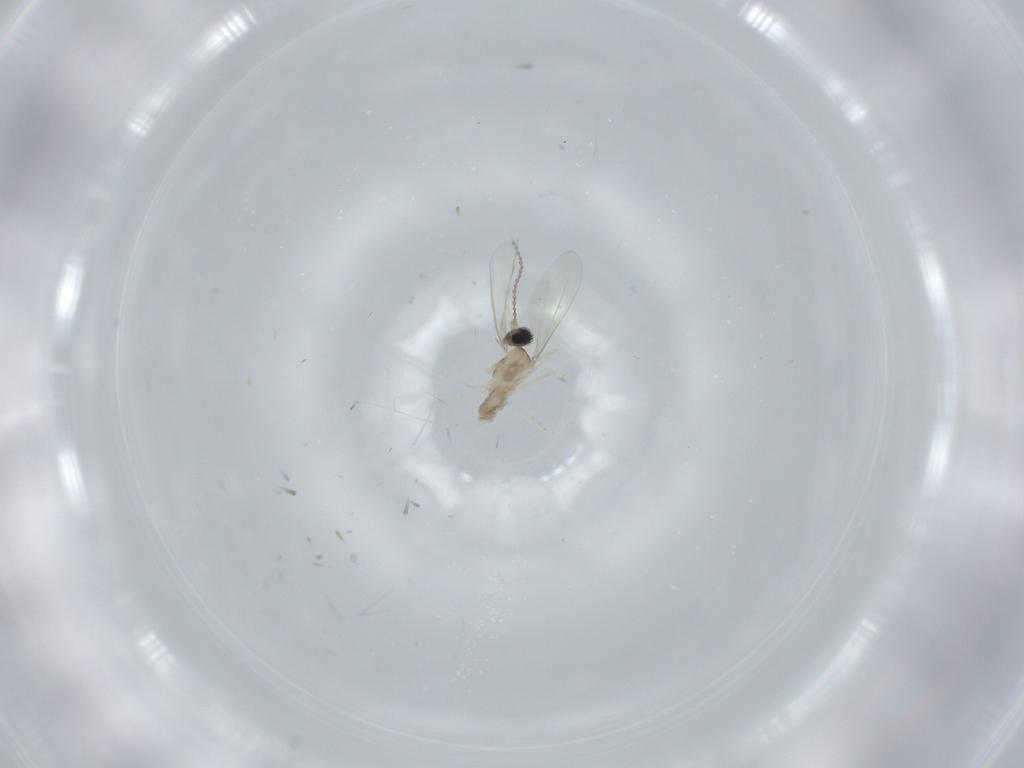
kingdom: Animalia
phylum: Arthropoda
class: Insecta
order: Diptera
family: Cecidomyiidae
